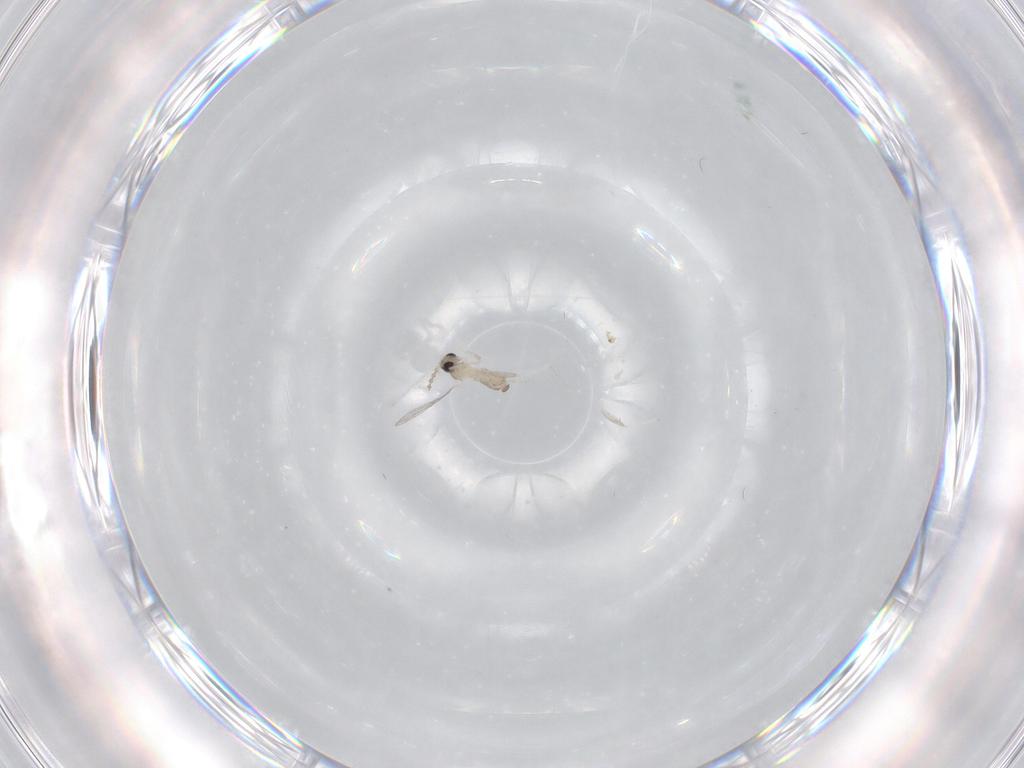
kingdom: Animalia
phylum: Arthropoda
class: Insecta
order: Diptera
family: Cecidomyiidae
